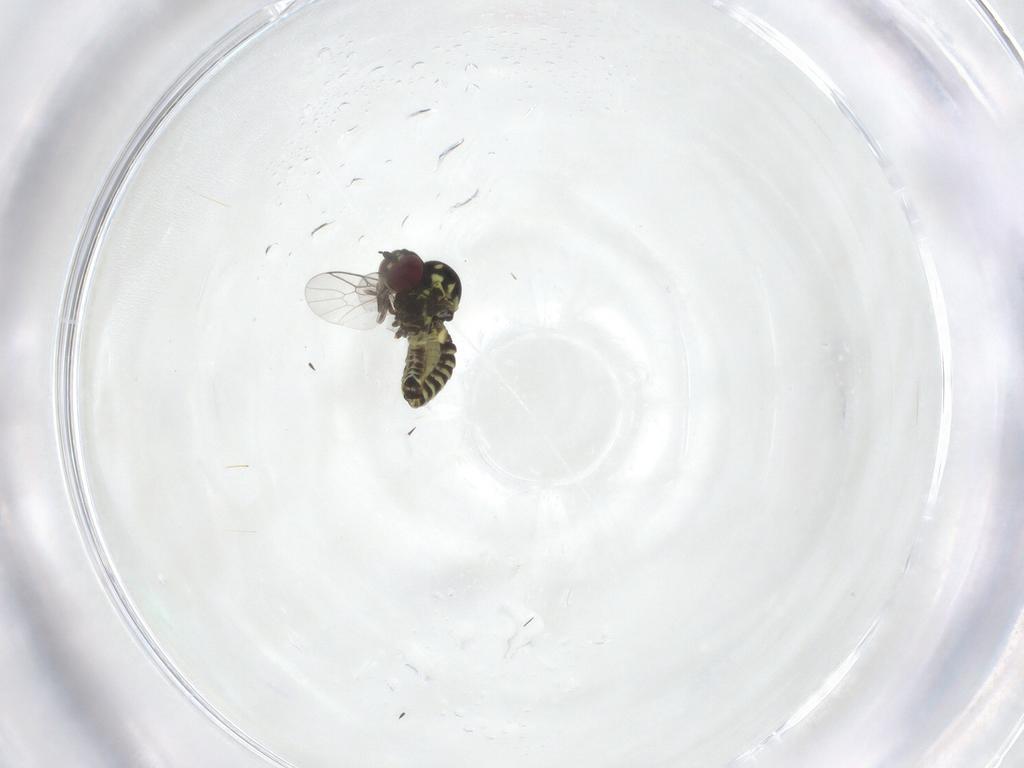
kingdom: Animalia
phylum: Arthropoda
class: Insecta
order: Diptera
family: Mythicomyiidae
